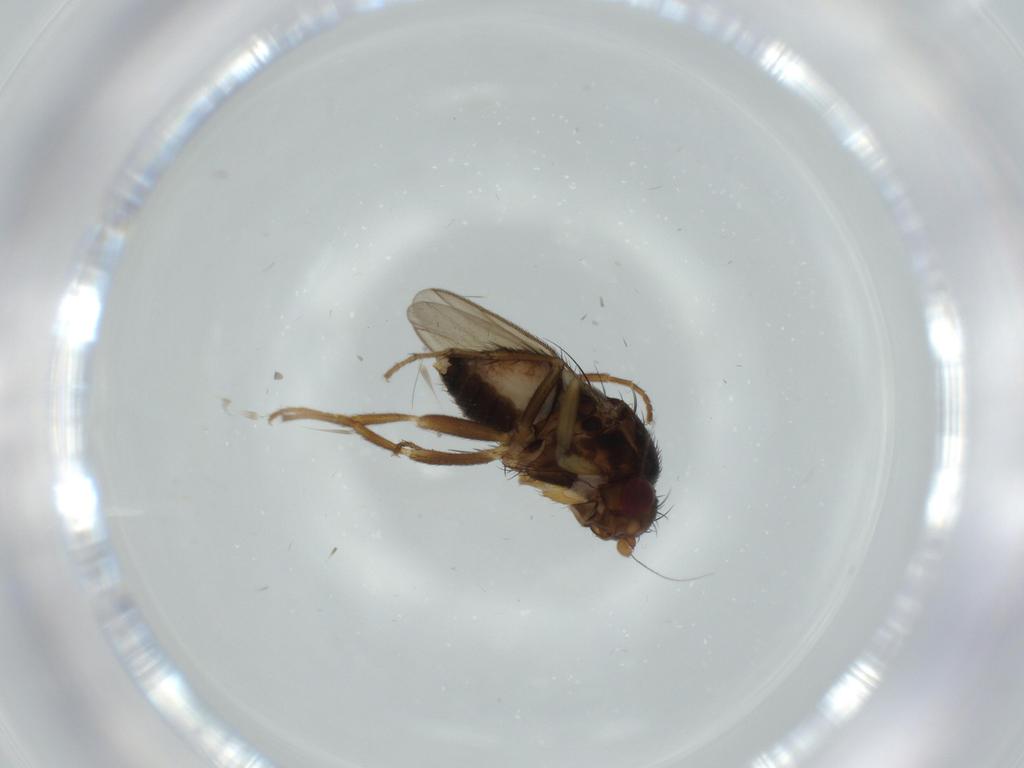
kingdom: Animalia
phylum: Arthropoda
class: Insecta
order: Diptera
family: Sphaeroceridae
